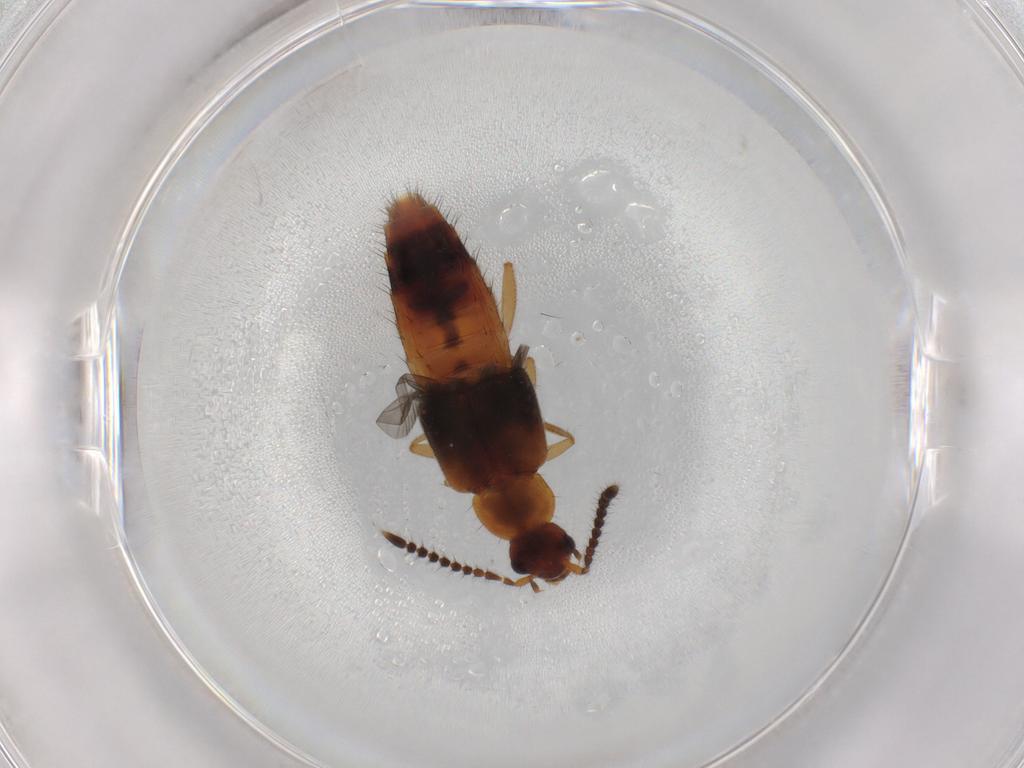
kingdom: Animalia
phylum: Arthropoda
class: Insecta
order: Coleoptera
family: Staphylinidae
